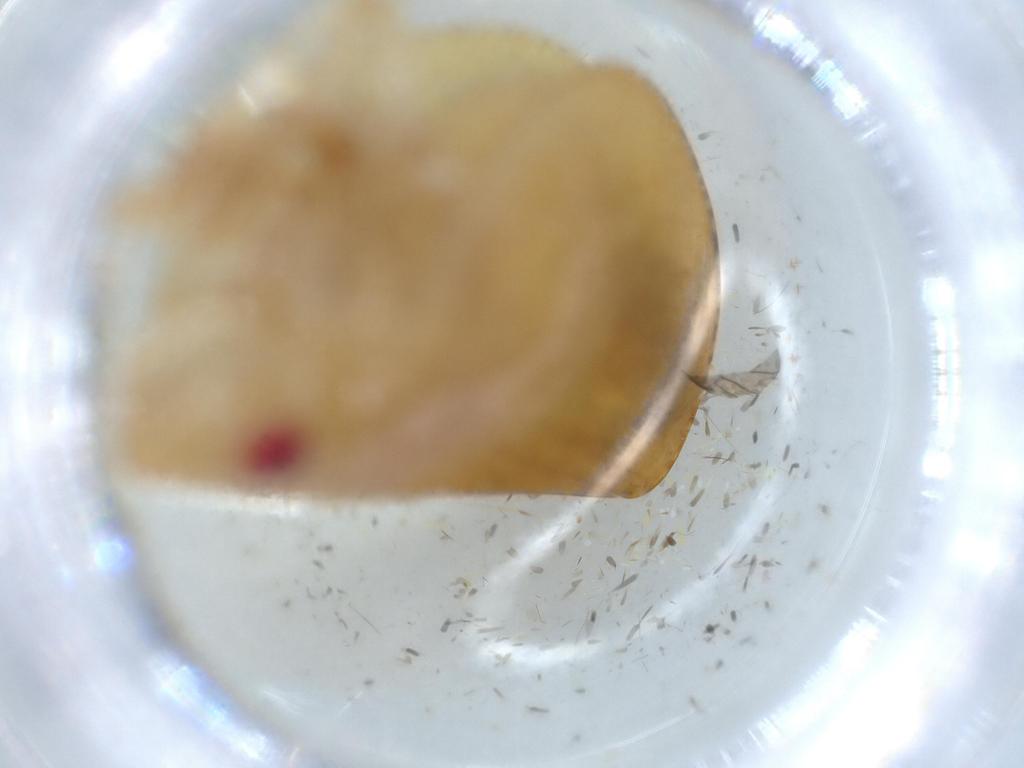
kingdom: Animalia
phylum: Arthropoda
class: Insecta
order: Hemiptera
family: Acanaloniidae
